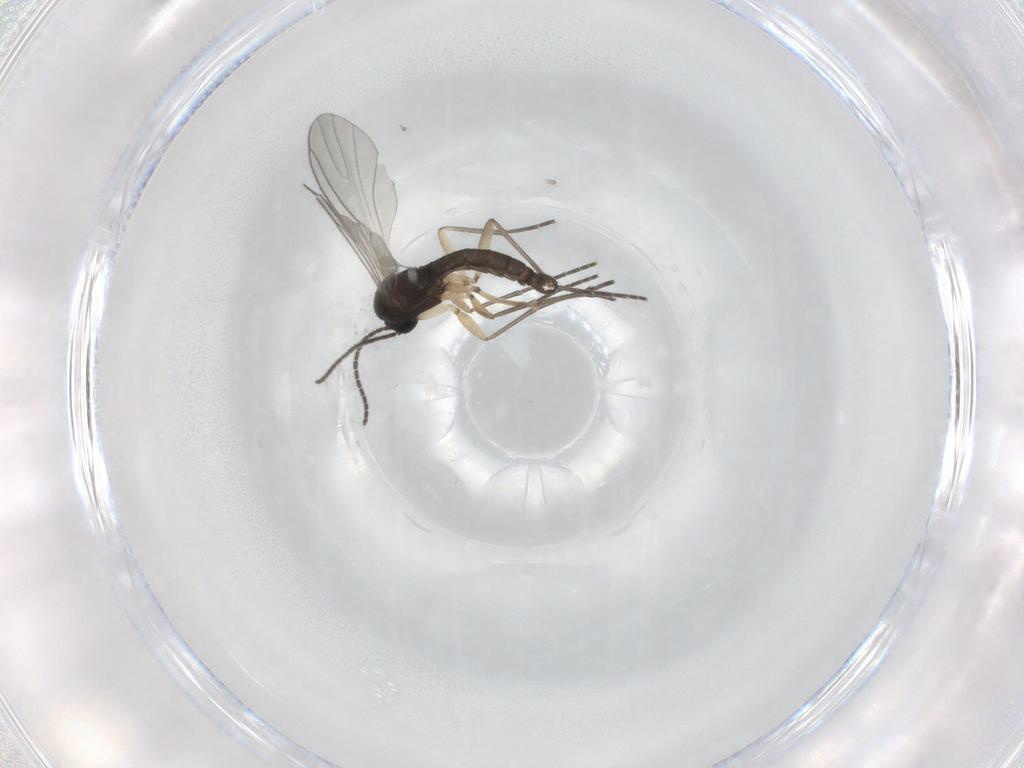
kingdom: Animalia
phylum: Arthropoda
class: Insecta
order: Diptera
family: Sciaridae
